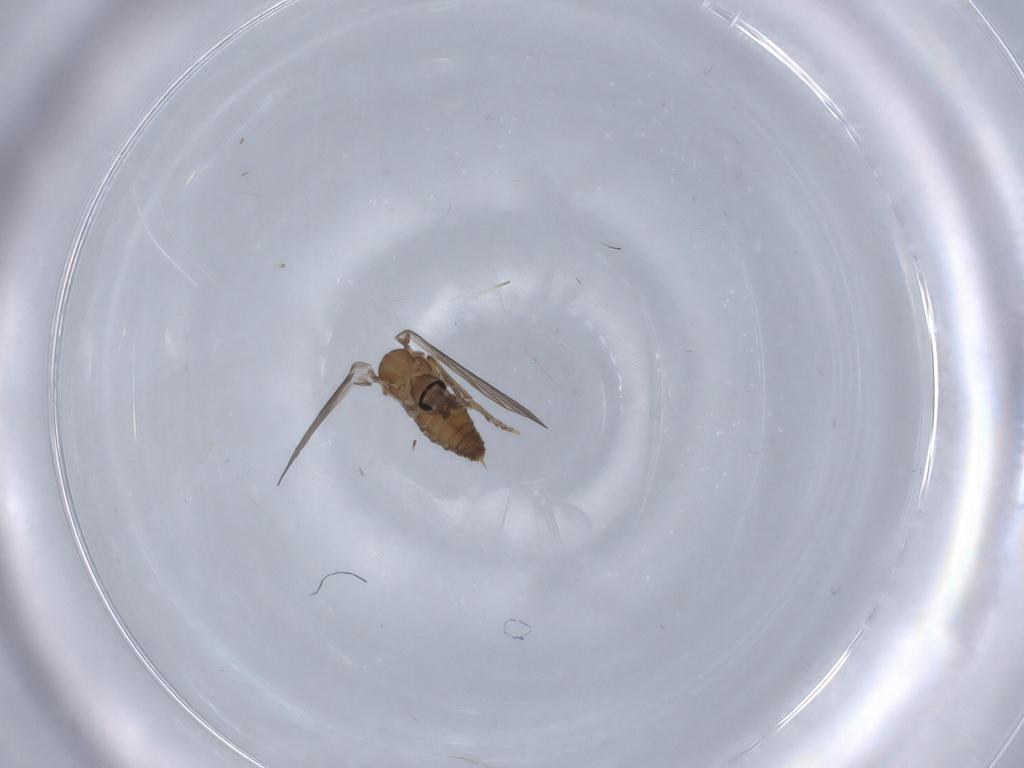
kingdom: Animalia
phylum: Arthropoda
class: Insecta
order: Diptera
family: Psychodidae
